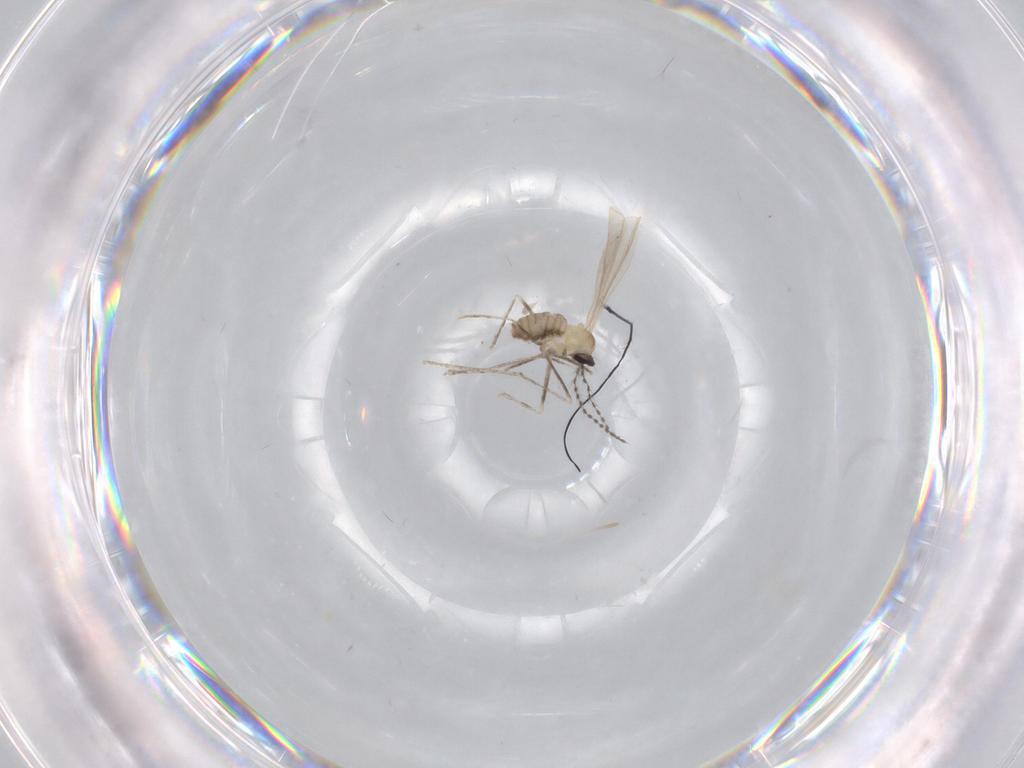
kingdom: Animalia
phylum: Arthropoda
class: Insecta
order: Diptera
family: Cecidomyiidae
